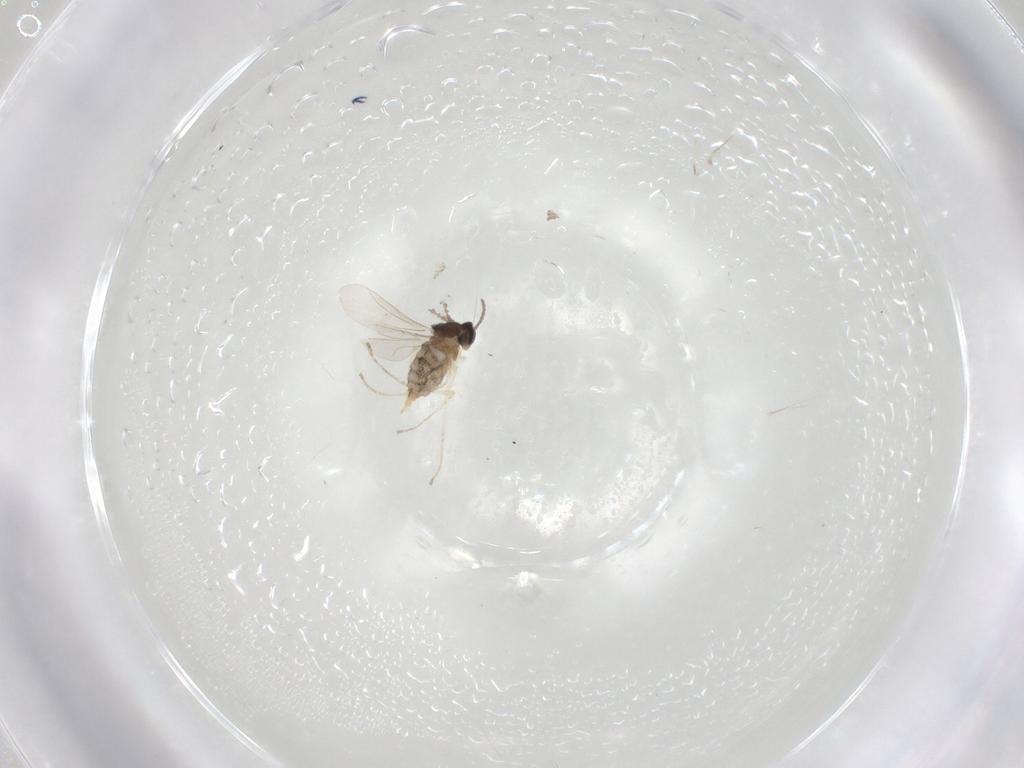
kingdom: Animalia
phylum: Arthropoda
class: Insecta
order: Diptera
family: Cecidomyiidae
